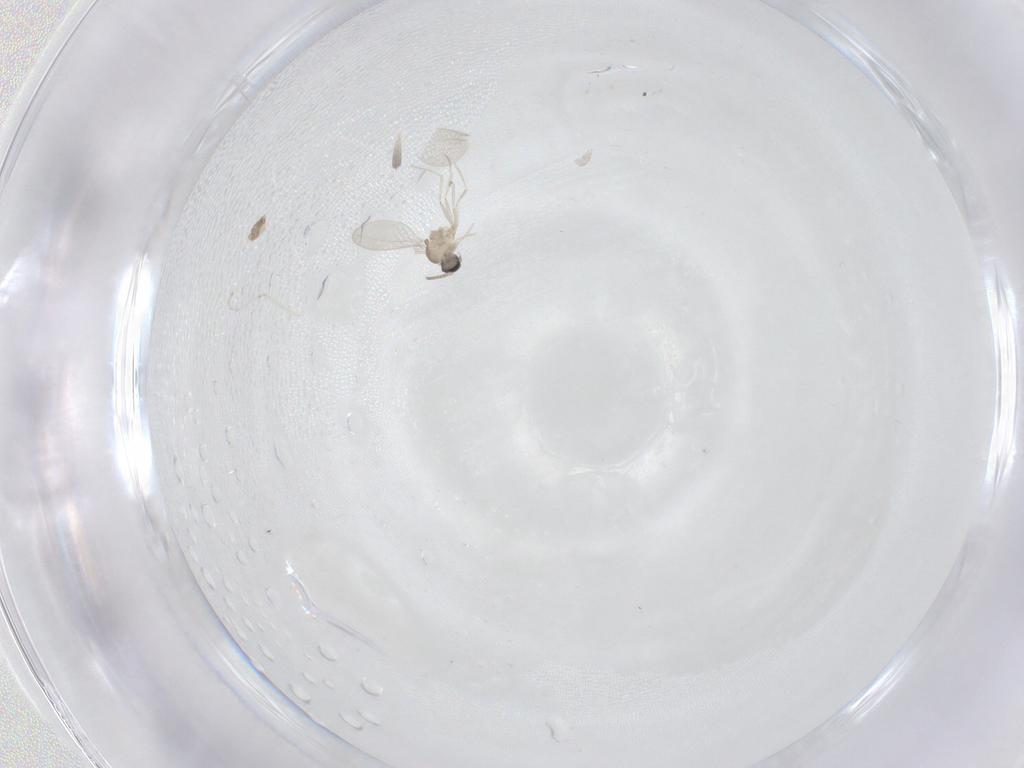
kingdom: Animalia
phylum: Arthropoda
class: Insecta
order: Diptera
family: Cecidomyiidae
